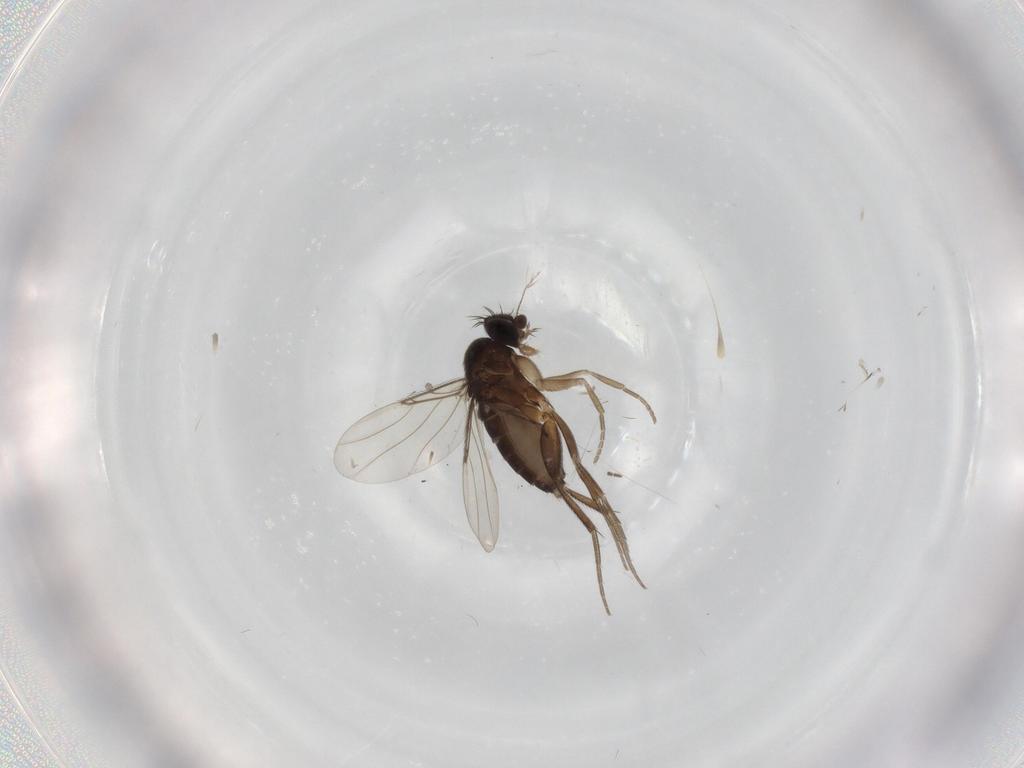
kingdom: Animalia
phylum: Arthropoda
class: Insecta
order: Diptera
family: Phoridae
